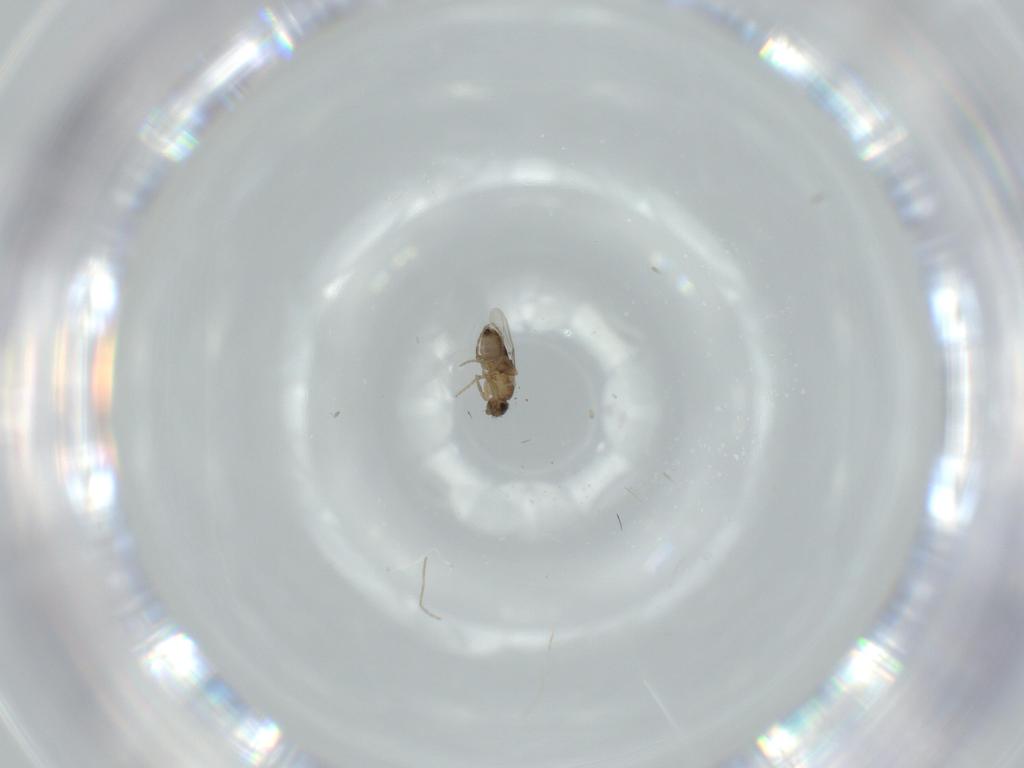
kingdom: Animalia
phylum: Arthropoda
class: Insecta
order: Diptera
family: Phoridae
